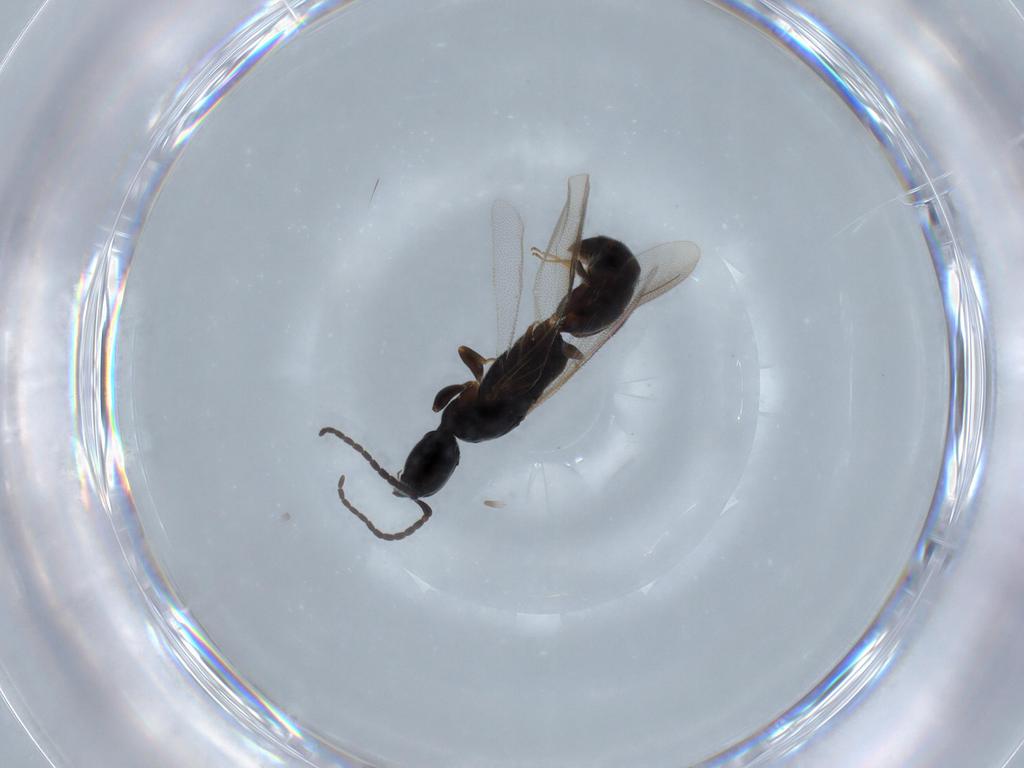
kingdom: Animalia
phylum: Arthropoda
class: Insecta
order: Hymenoptera
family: Bethylidae
